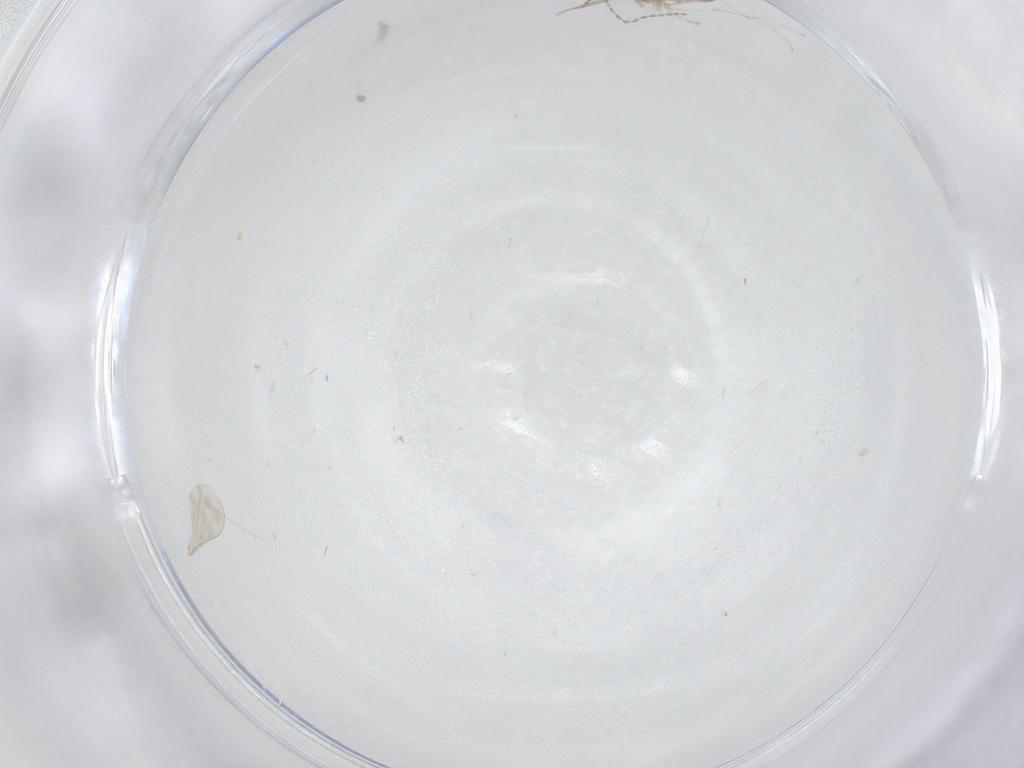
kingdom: Animalia
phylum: Arthropoda
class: Insecta
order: Diptera
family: Cecidomyiidae
